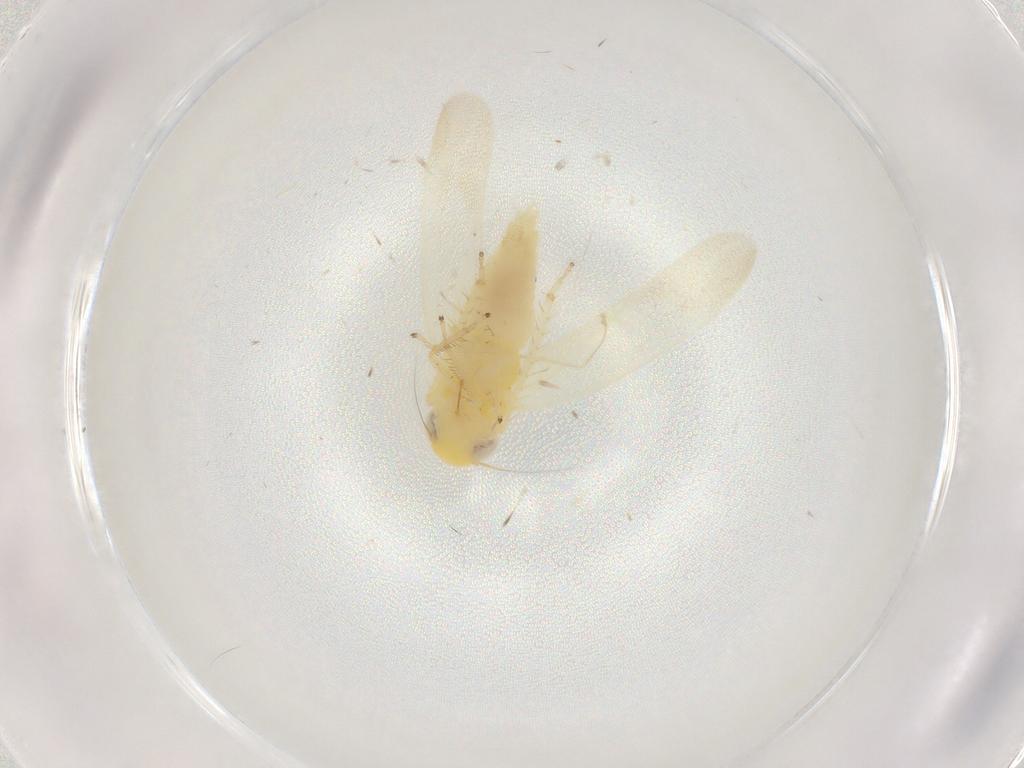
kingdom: Animalia
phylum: Arthropoda
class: Insecta
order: Hemiptera
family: Cicadellidae
